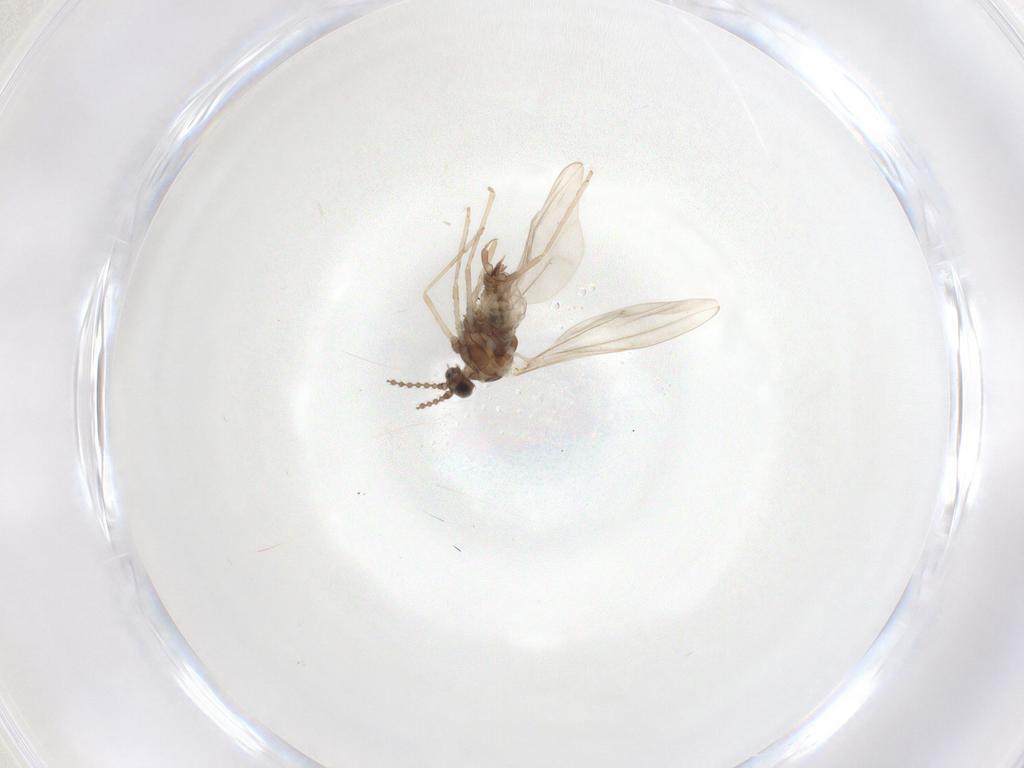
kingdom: Animalia
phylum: Arthropoda
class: Insecta
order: Diptera
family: Cecidomyiidae
